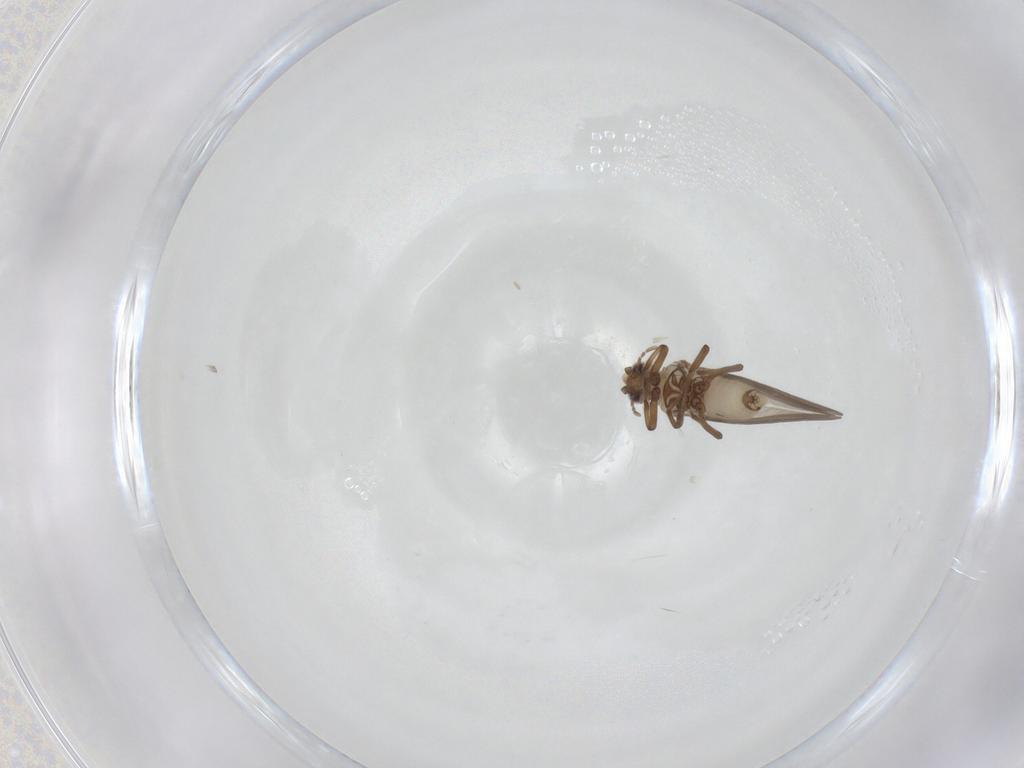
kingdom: Animalia
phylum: Arthropoda
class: Insecta
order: Neuroptera
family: Coniopterygidae
